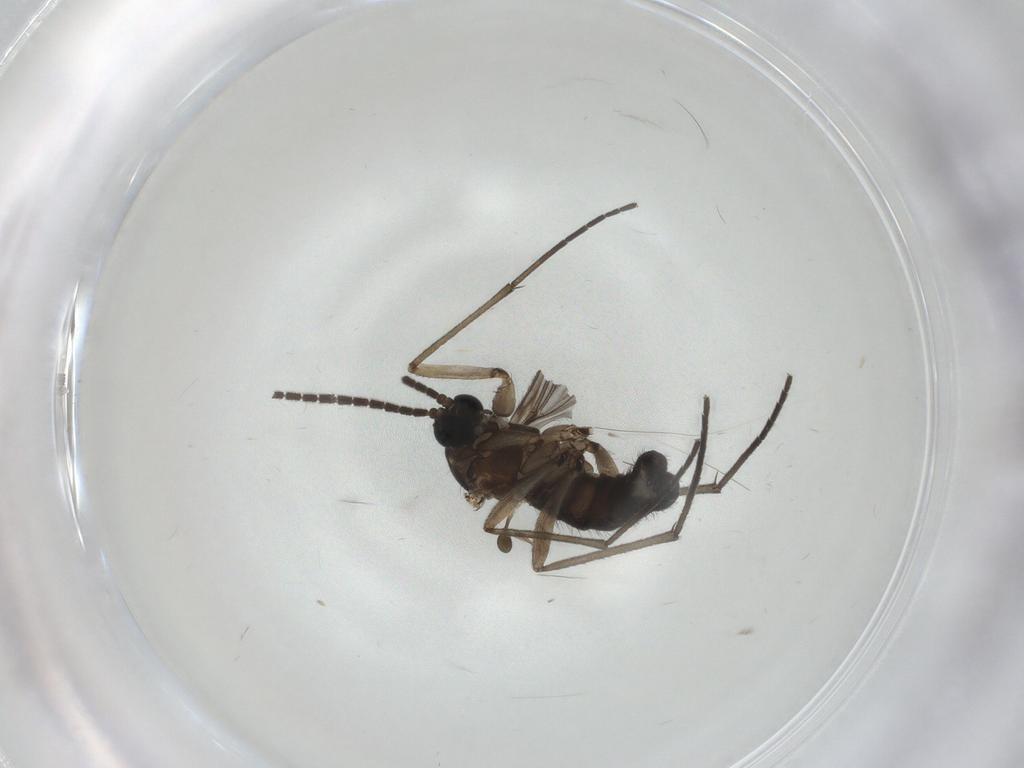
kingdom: Animalia
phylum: Arthropoda
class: Insecta
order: Diptera
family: Sciaridae
